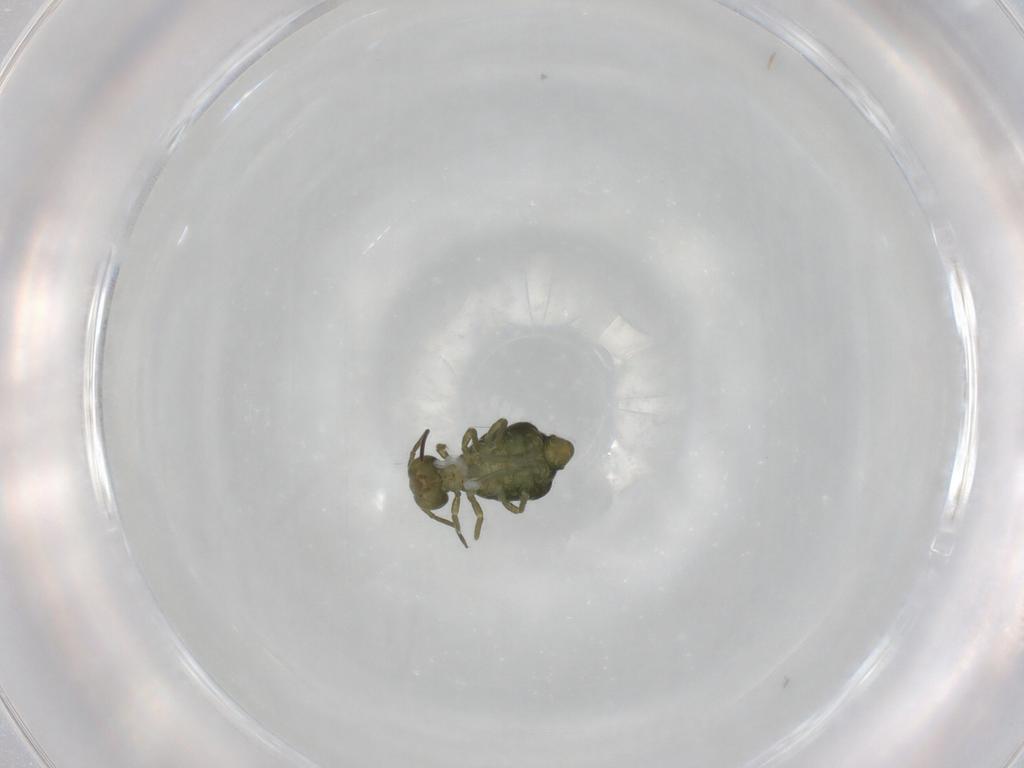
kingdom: Animalia
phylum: Arthropoda
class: Collembola
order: Symphypleona
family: Sminthuridae
